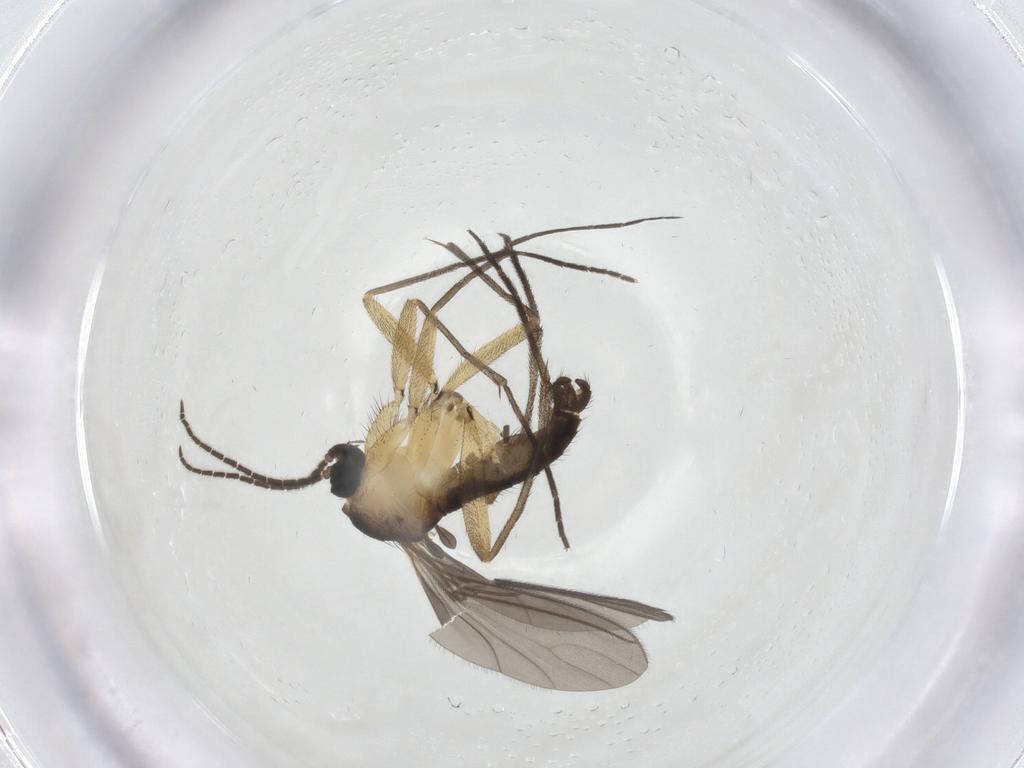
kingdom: Animalia
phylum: Arthropoda
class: Insecta
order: Diptera
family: Sciaridae
